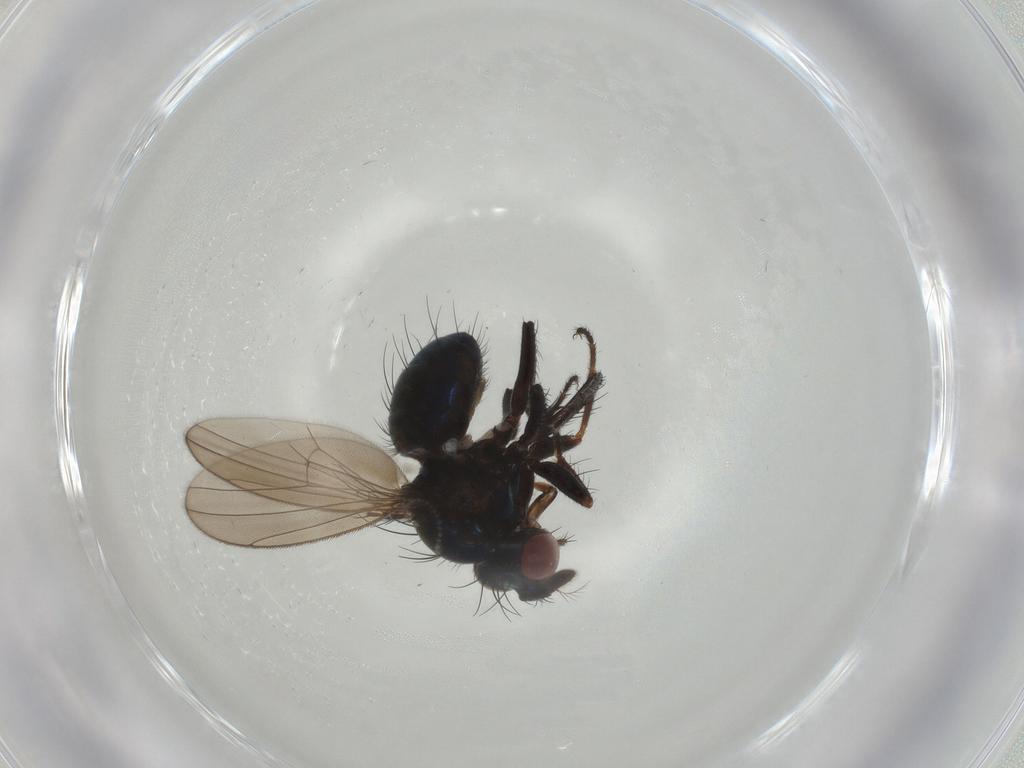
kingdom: Animalia
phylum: Arthropoda
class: Insecta
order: Diptera
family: Ephydridae
